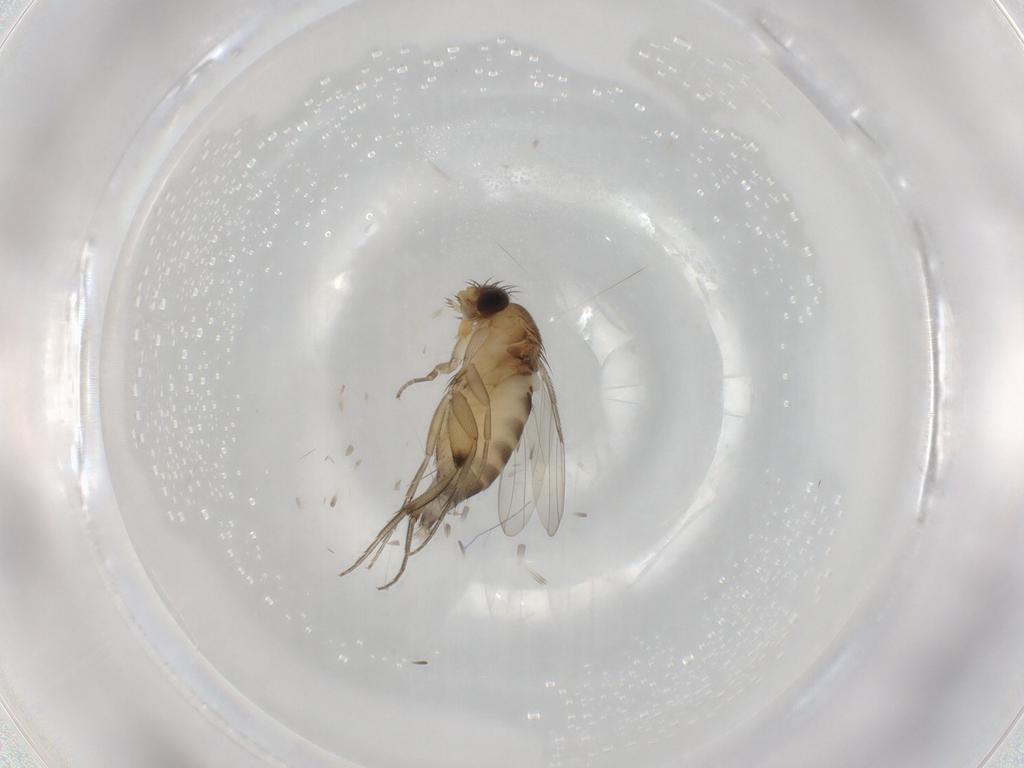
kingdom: Animalia
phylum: Arthropoda
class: Insecta
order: Diptera
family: Phoridae
